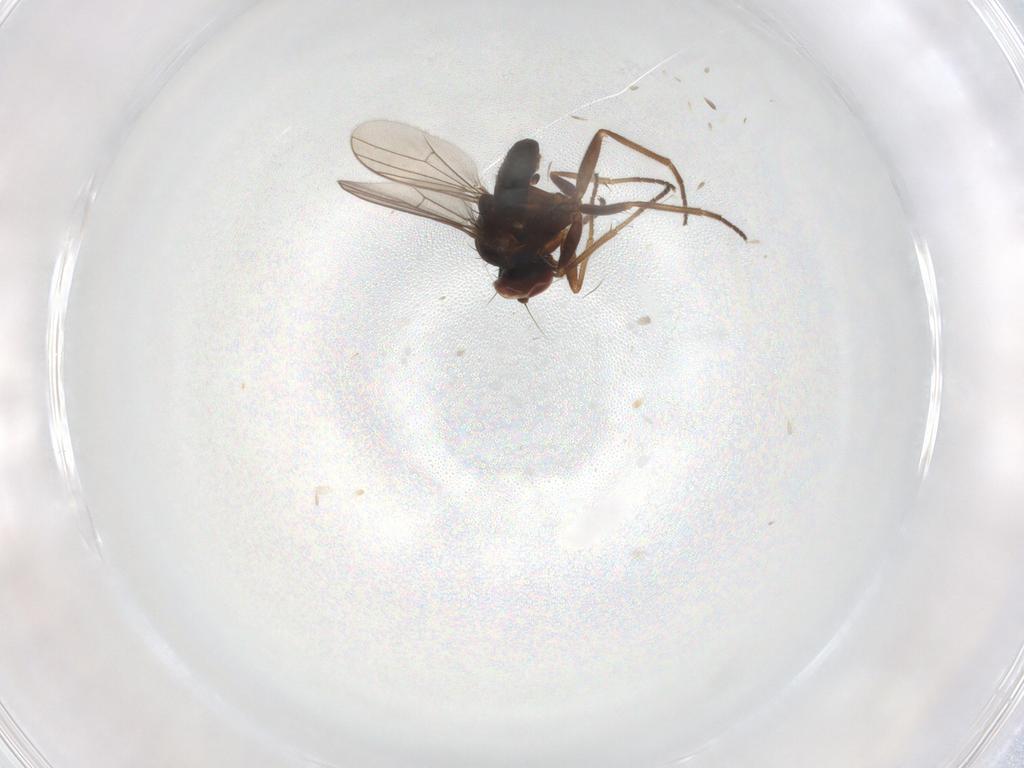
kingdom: Animalia
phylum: Arthropoda
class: Insecta
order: Diptera
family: Dolichopodidae
